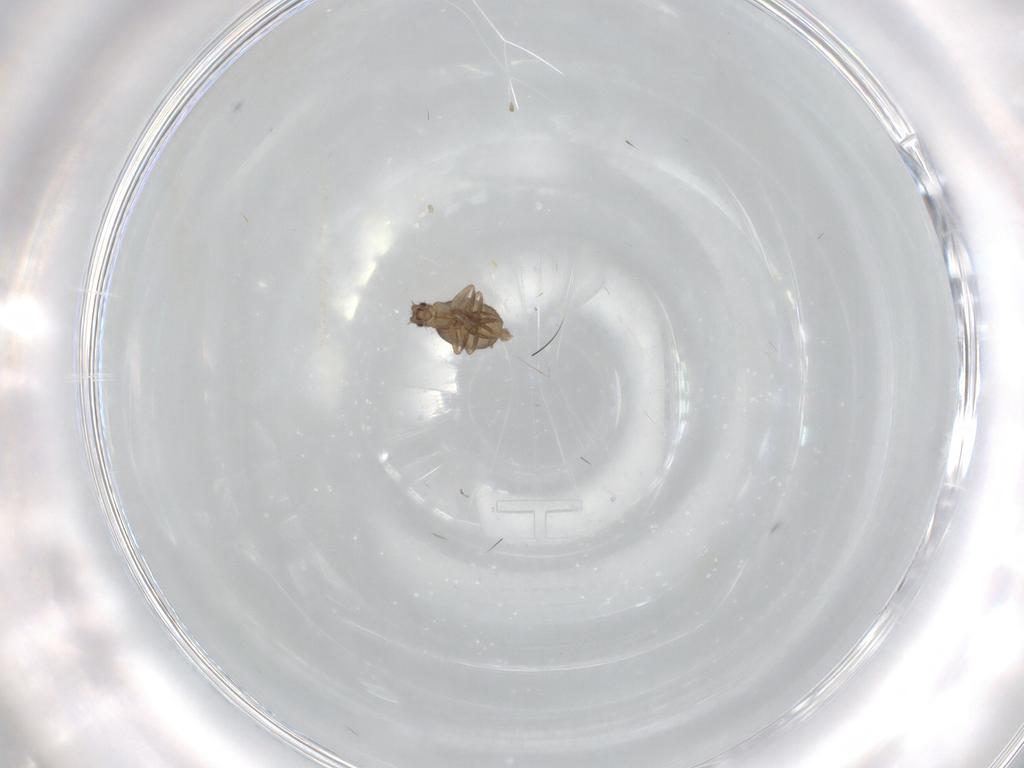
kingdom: Animalia
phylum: Arthropoda
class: Insecta
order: Diptera
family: Phoridae
